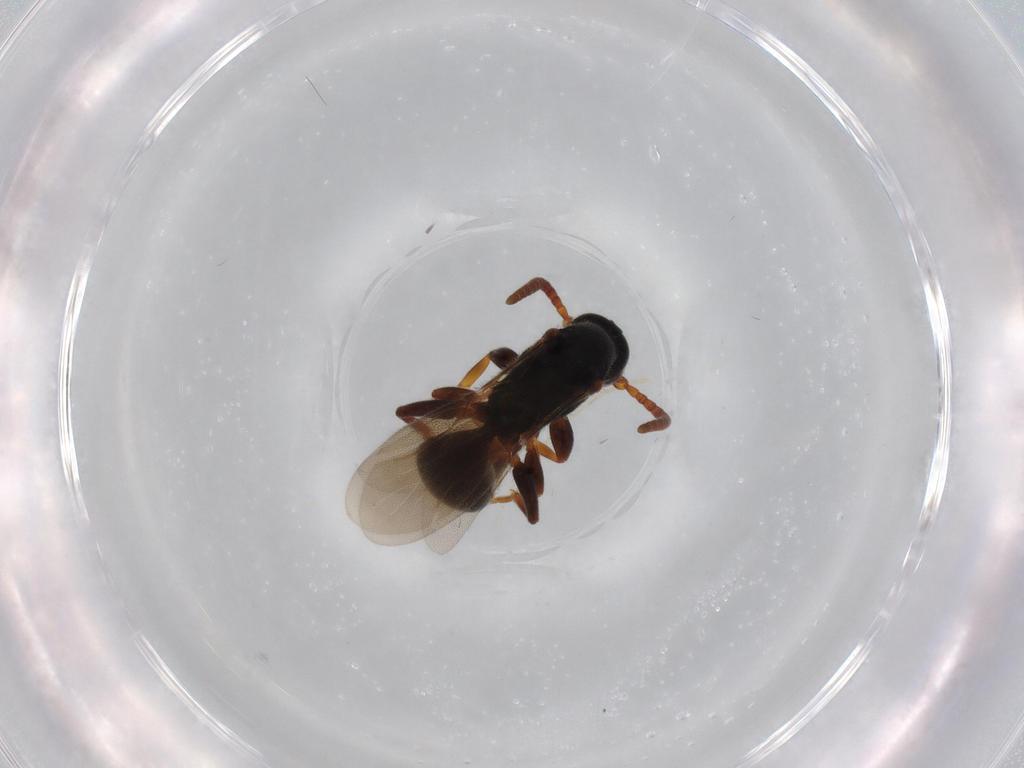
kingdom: Animalia
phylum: Arthropoda
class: Insecta
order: Hymenoptera
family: Bethylidae
